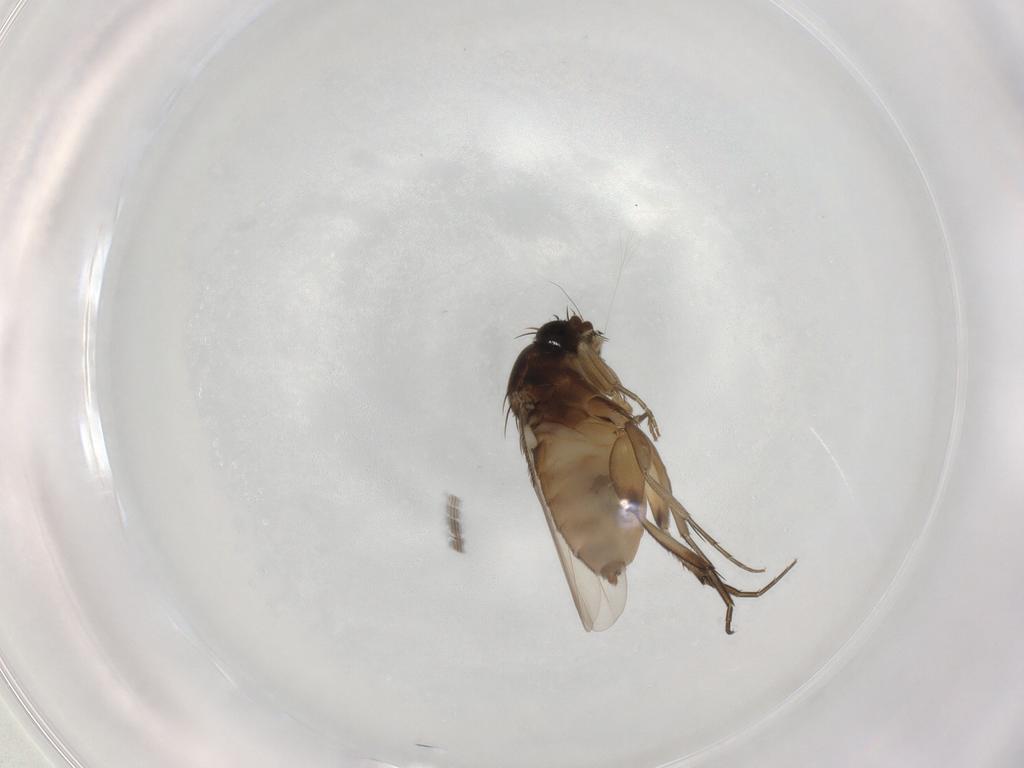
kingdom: Animalia
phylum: Arthropoda
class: Insecta
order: Diptera
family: Phoridae
